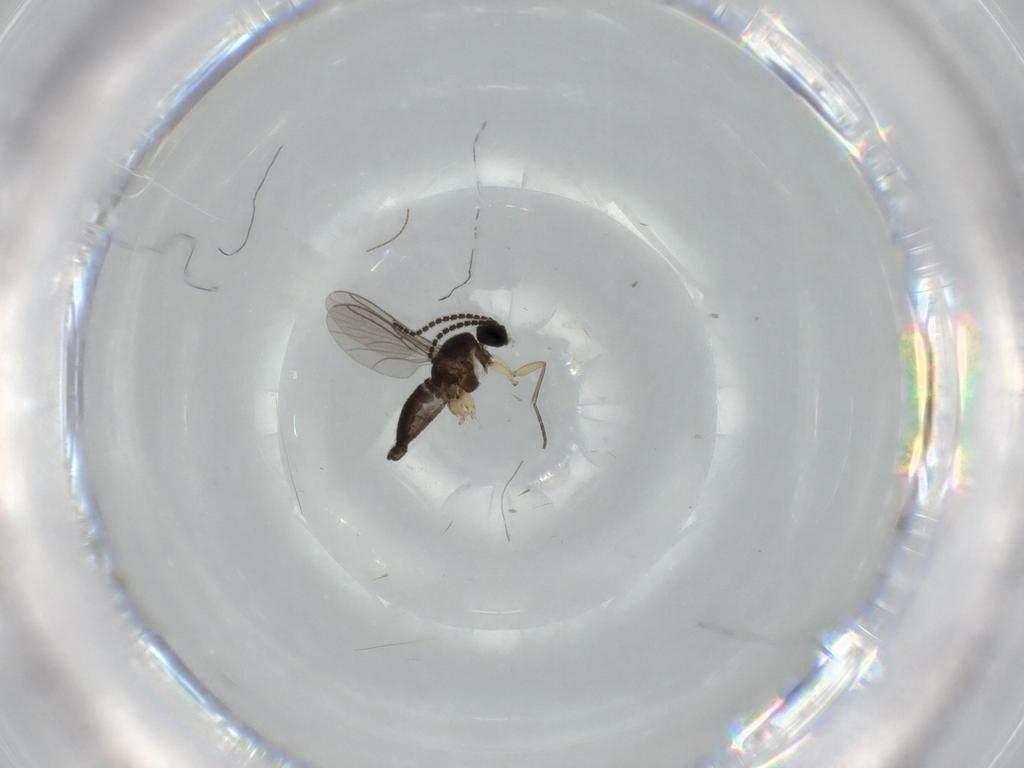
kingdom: Animalia
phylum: Arthropoda
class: Insecta
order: Diptera
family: Sciaridae
